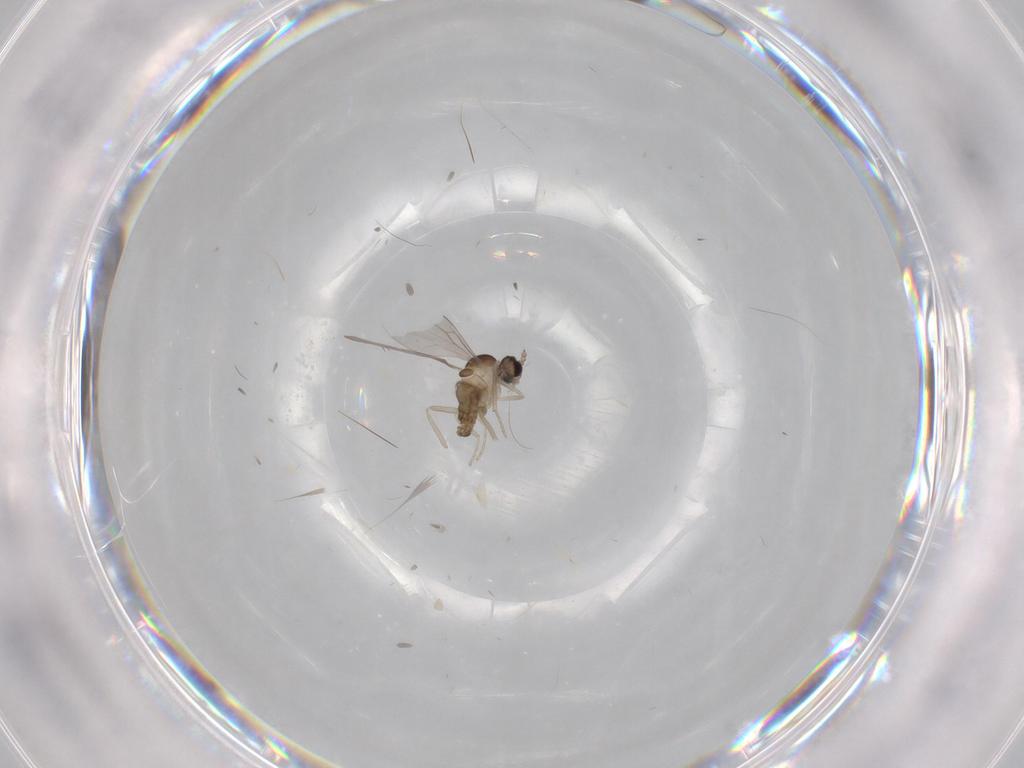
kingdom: Animalia
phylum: Arthropoda
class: Insecta
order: Diptera
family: Cecidomyiidae
